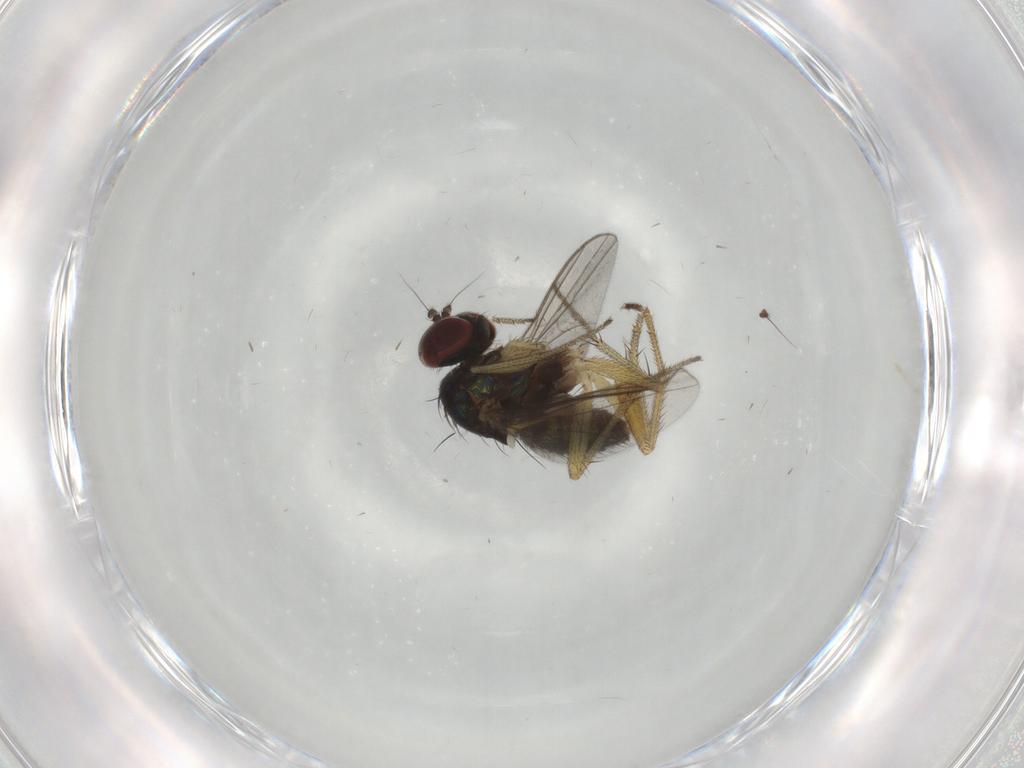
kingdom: Animalia
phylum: Arthropoda
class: Insecta
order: Diptera
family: Dolichopodidae
